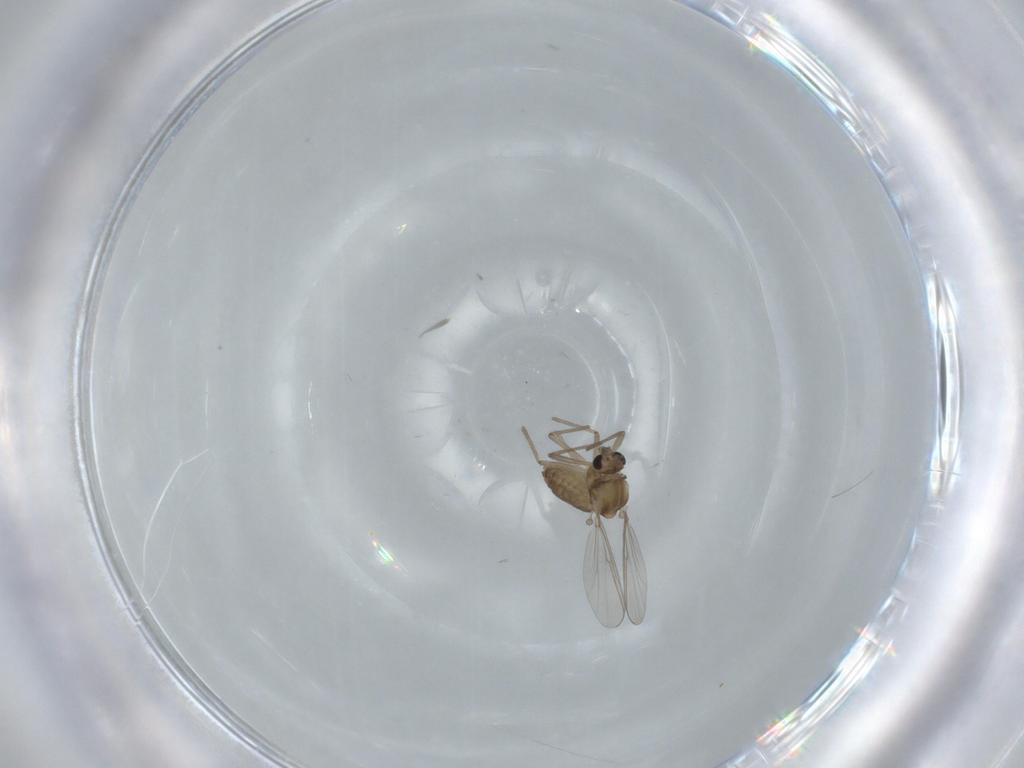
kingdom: Animalia
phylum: Arthropoda
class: Insecta
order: Diptera
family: Chironomidae
